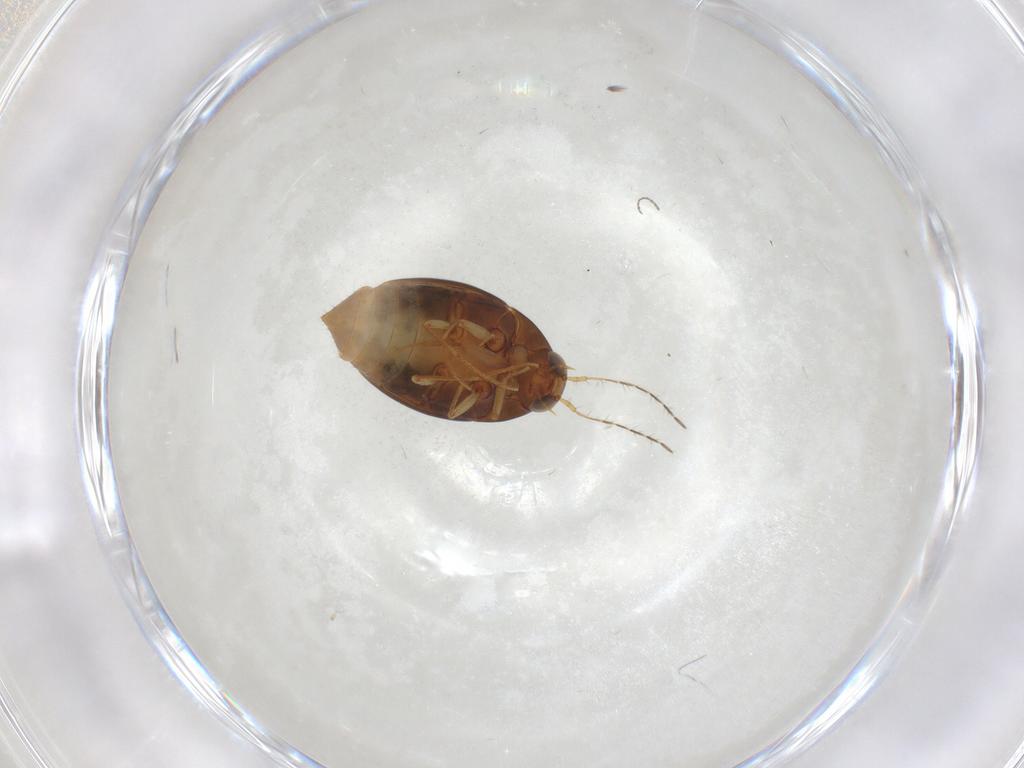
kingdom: Animalia
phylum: Arthropoda
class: Insecta
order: Coleoptera
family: Staphylinidae
